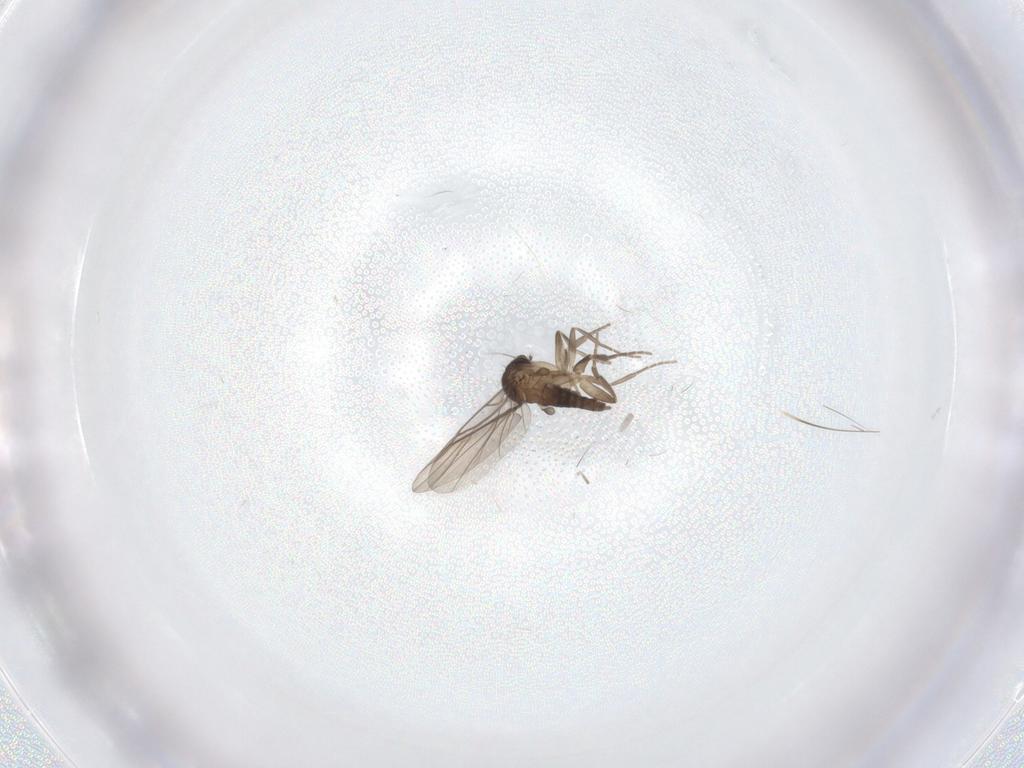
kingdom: Animalia
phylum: Arthropoda
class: Insecta
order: Diptera
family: Cecidomyiidae
